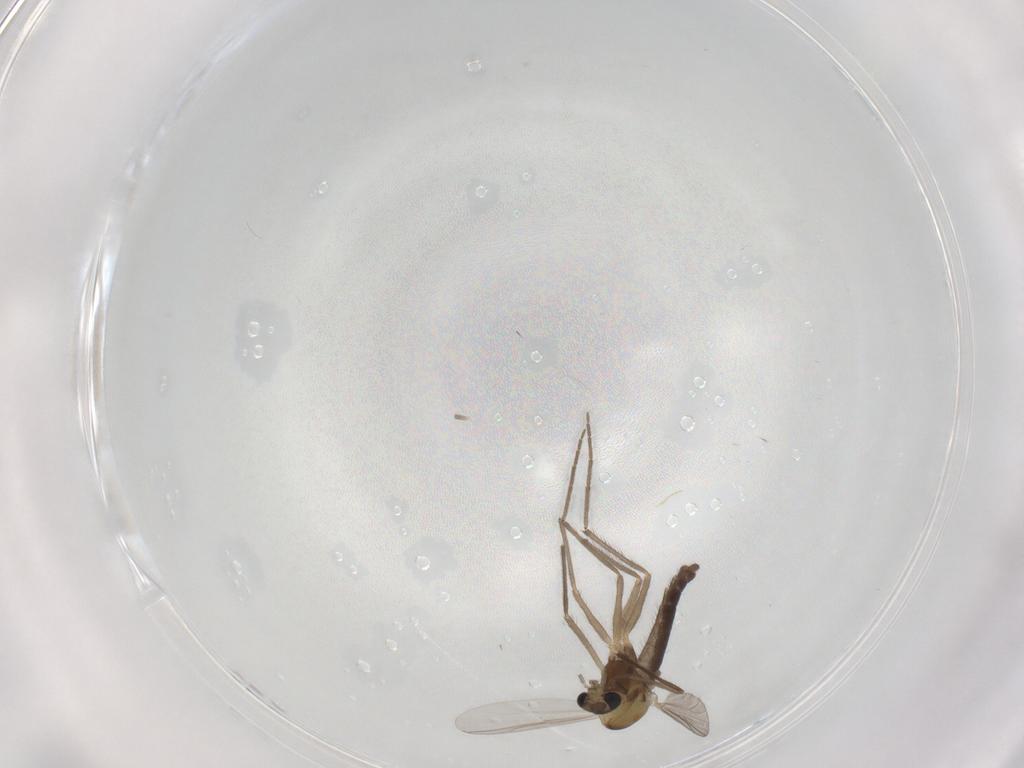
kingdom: Animalia
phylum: Arthropoda
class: Insecta
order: Diptera
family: Chironomidae
